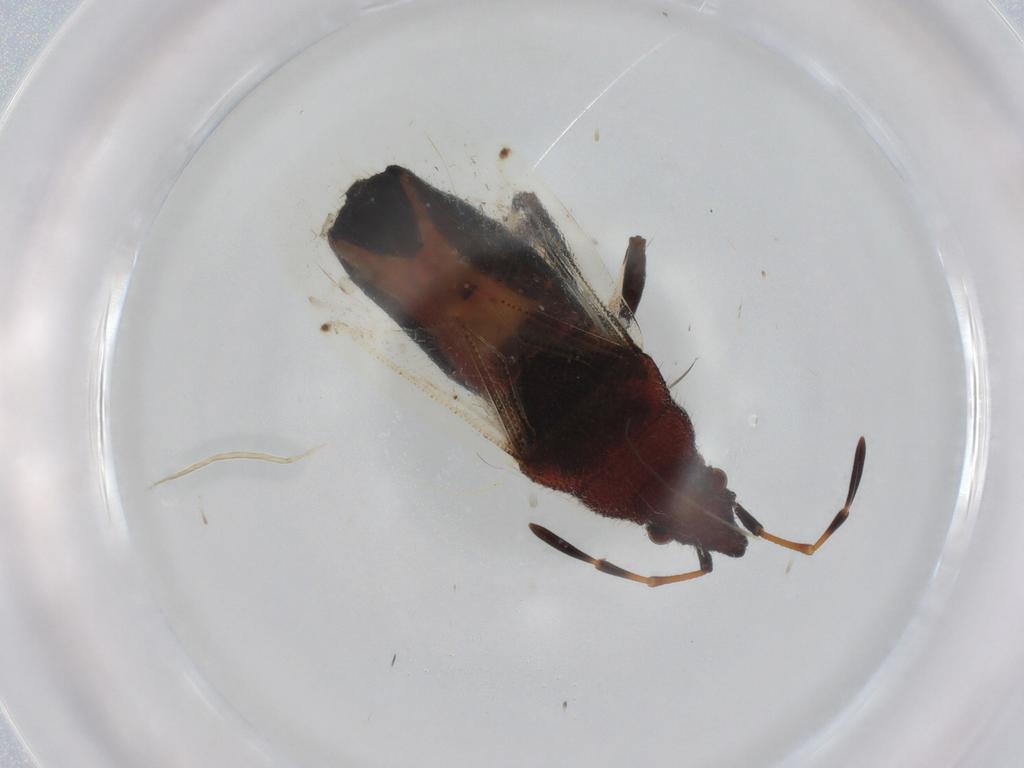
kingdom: Animalia
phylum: Arthropoda
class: Insecta
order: Hemiptera
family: Oxycarenidae
